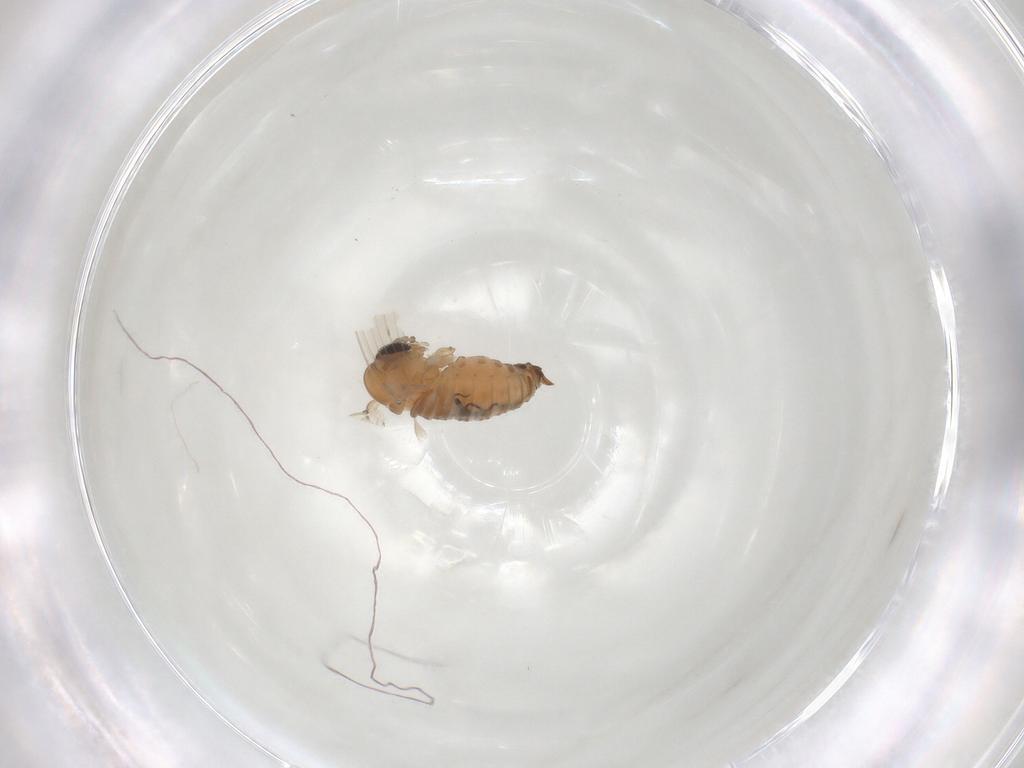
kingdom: Animalia
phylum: Arthropoda
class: Insecta
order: Diptera
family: Psychodidae
